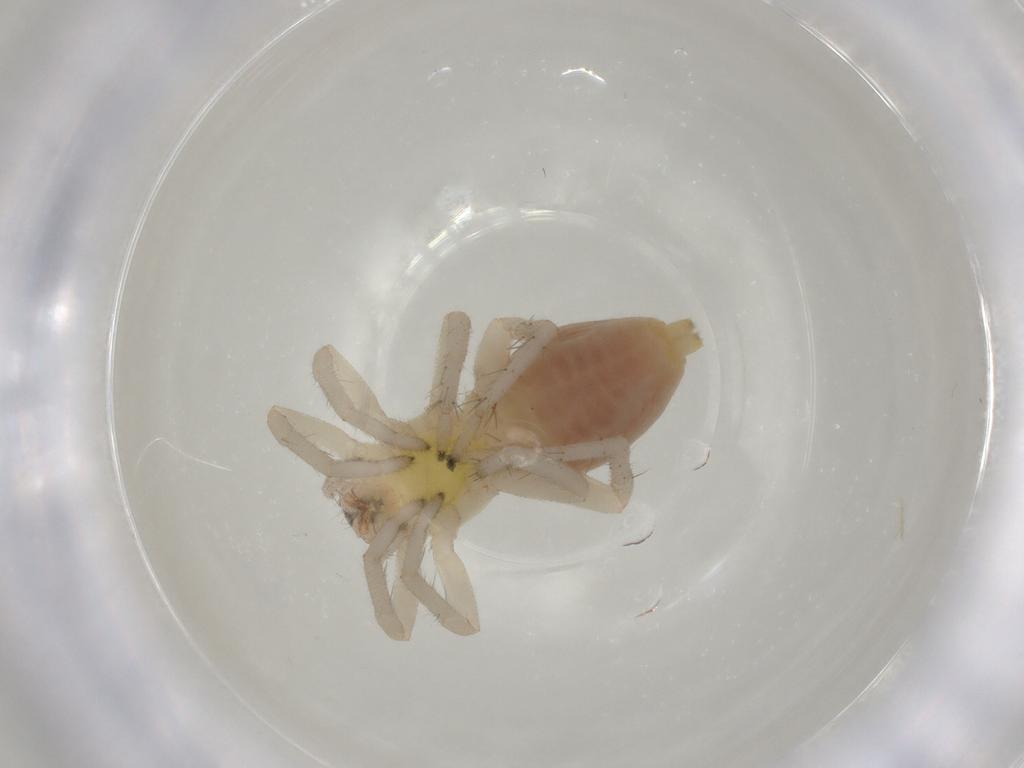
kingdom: Animalia
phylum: Arthropoda
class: Arachnida
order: Araneae
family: Clubionidae
